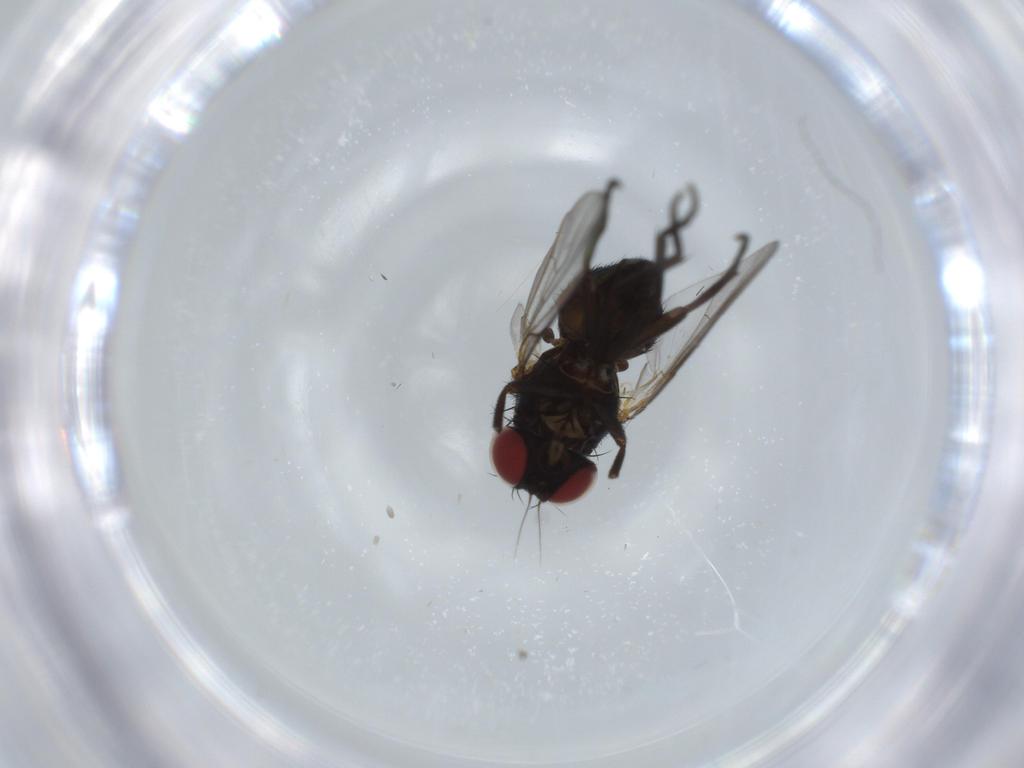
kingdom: Animalia
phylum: Arthropoda
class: Insecta
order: Diptera
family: Agromyzidae
